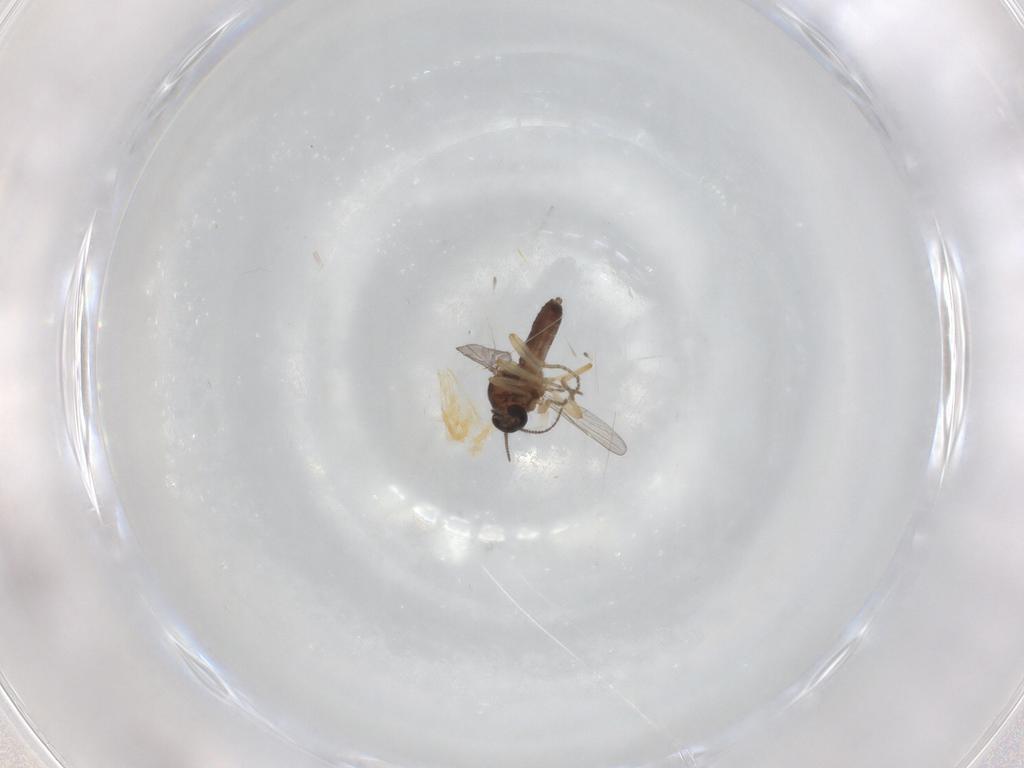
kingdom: Animalia
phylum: Arthropoda
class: Insecta
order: Diptera
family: Ceratopogonidae
